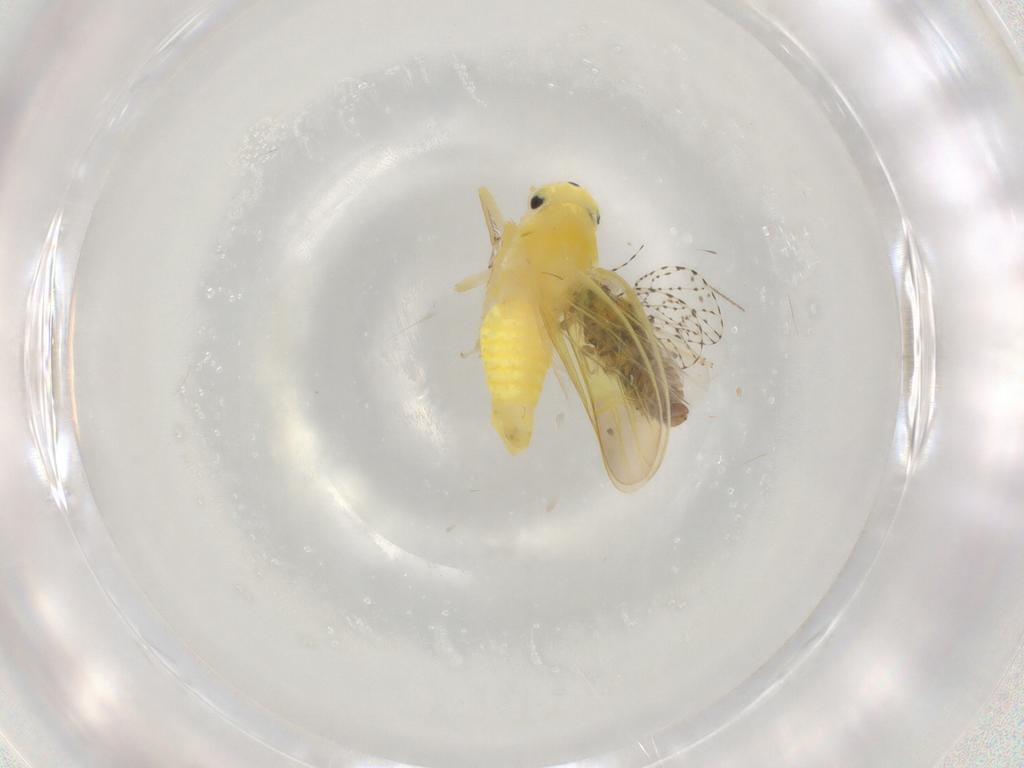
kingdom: Animalia
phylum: Arthropoda
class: Insecta
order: Hemiptera
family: Cicadellidae
